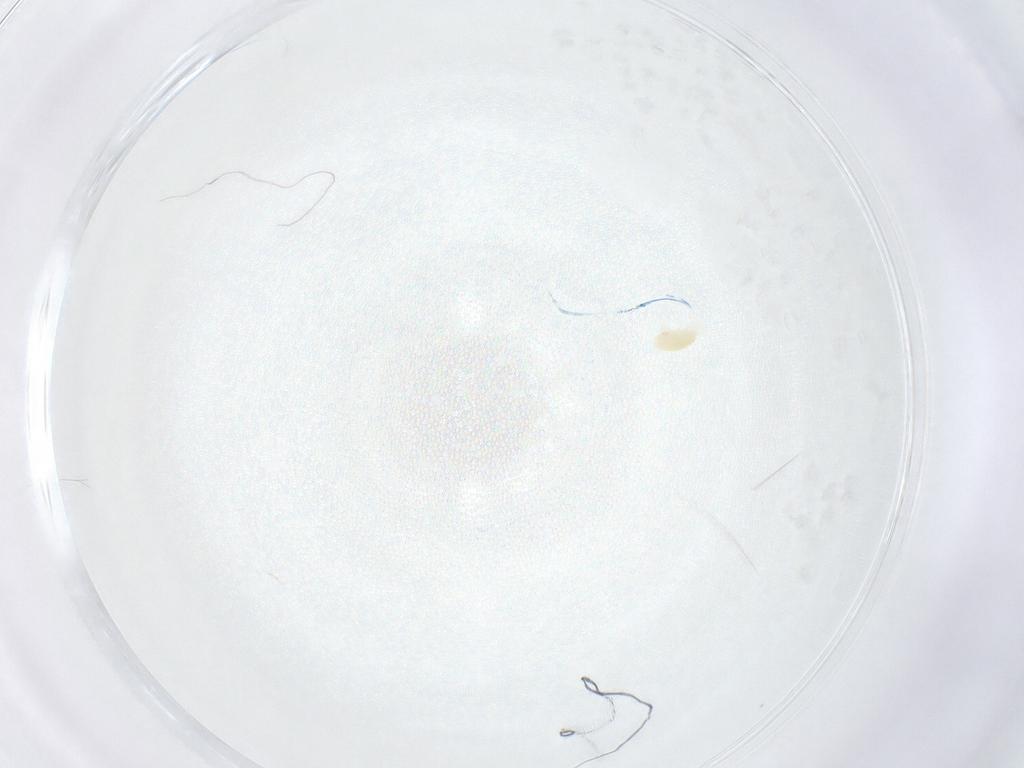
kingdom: Animalia
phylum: Arthropoda
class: Arachnida
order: Trombidiformes
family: Eupodidae
